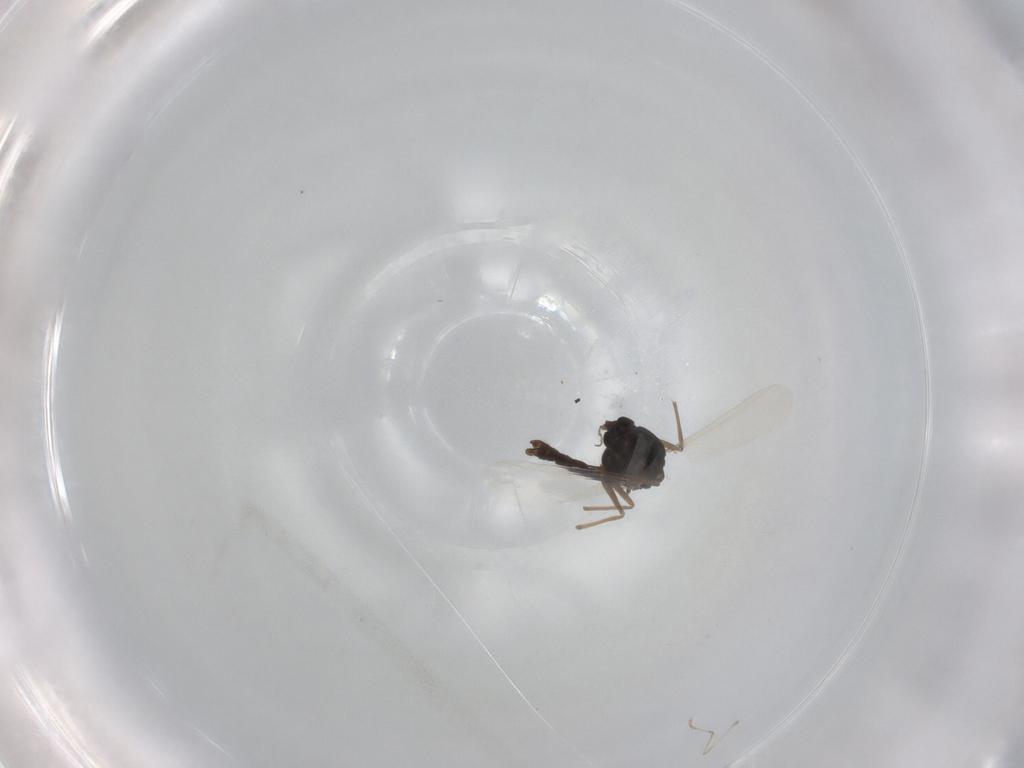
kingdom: Animalia
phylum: Arthropoda
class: Insecta
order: Diptera
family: Chironomidae
